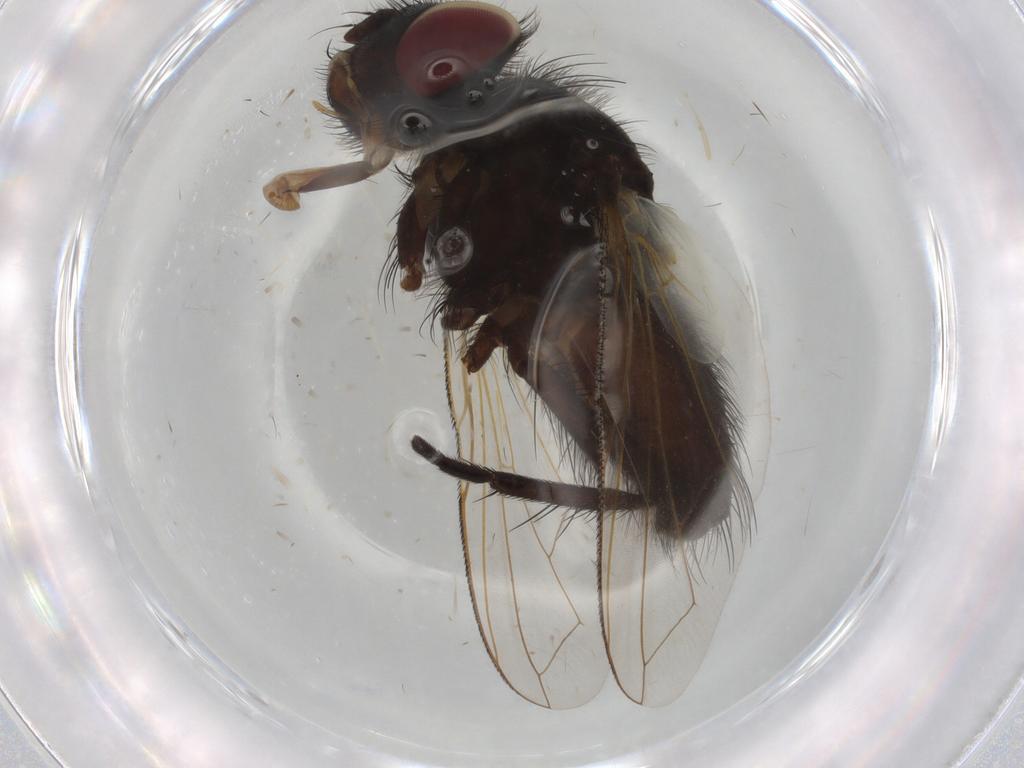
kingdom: Animalia
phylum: Arthropoda
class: Insecta
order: Diptera
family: Tachinidae
